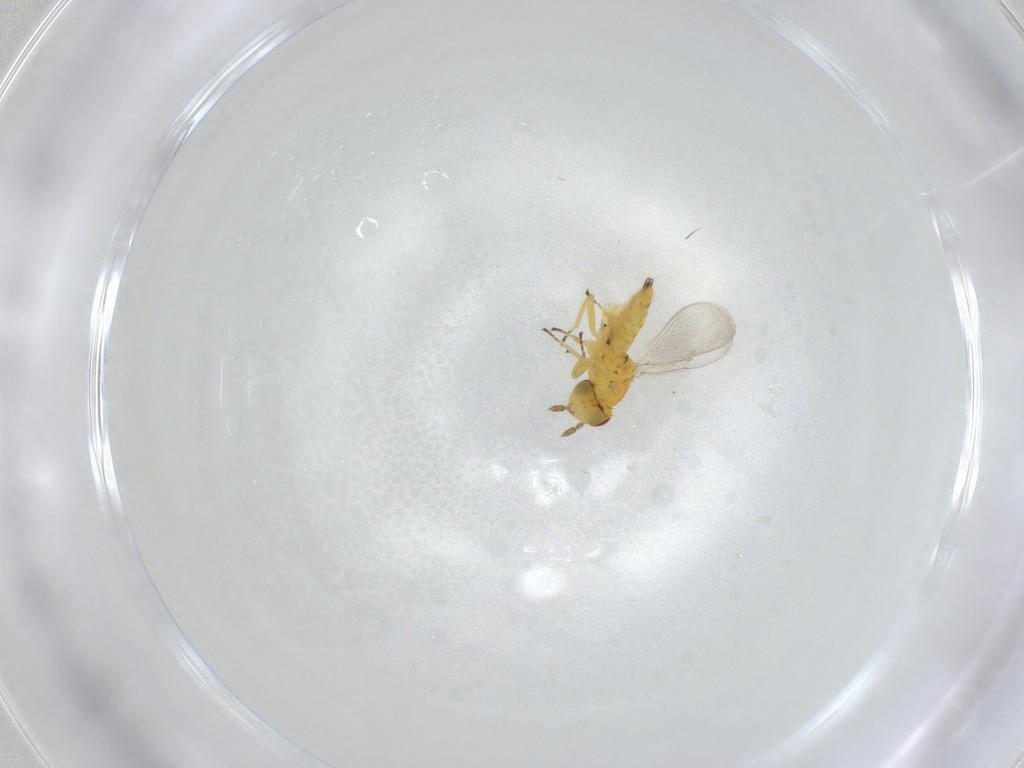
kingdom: Animalia
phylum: Arthropoda
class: Insecta
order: Hymenoptera
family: Eulophidae
